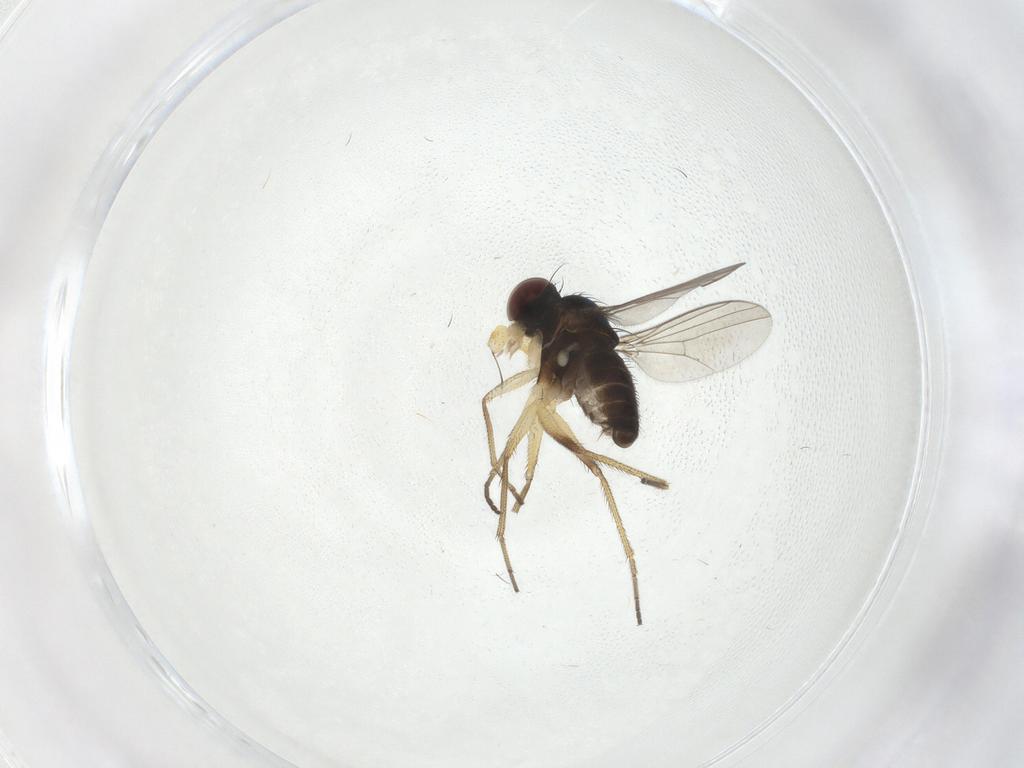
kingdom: Animalia
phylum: Arthropoda
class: Insecta
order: Diptera
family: Dolichopodidae
